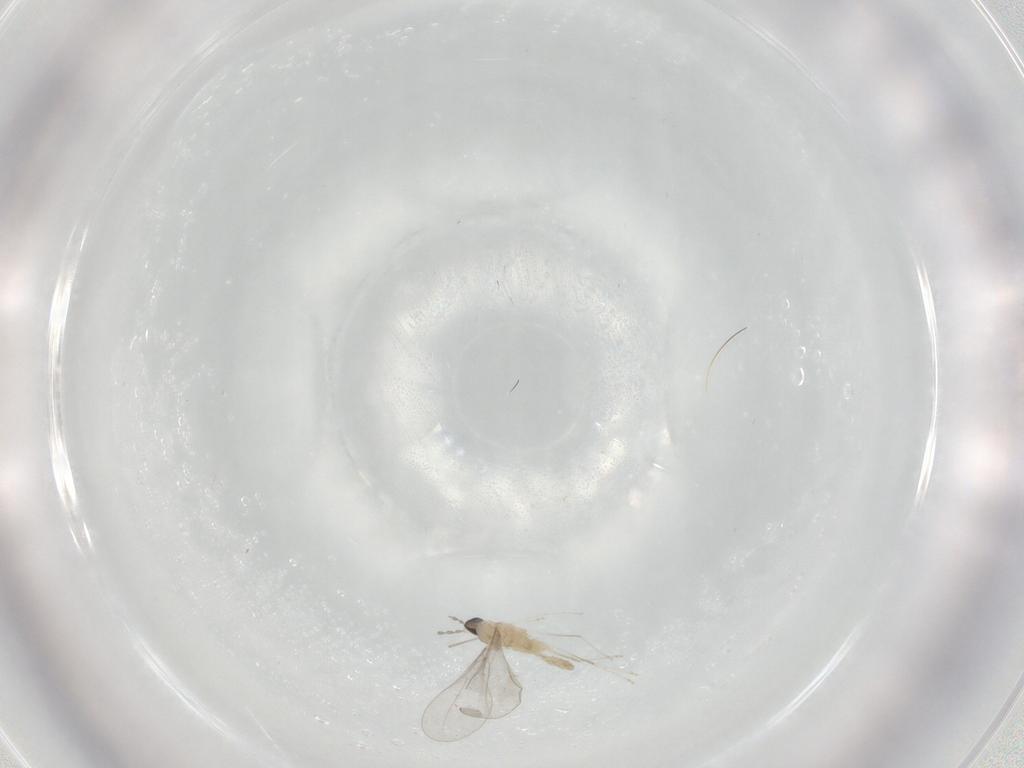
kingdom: Animalia
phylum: Arthropoda
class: Insecta
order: Diptera
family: Cecidomyiidae
